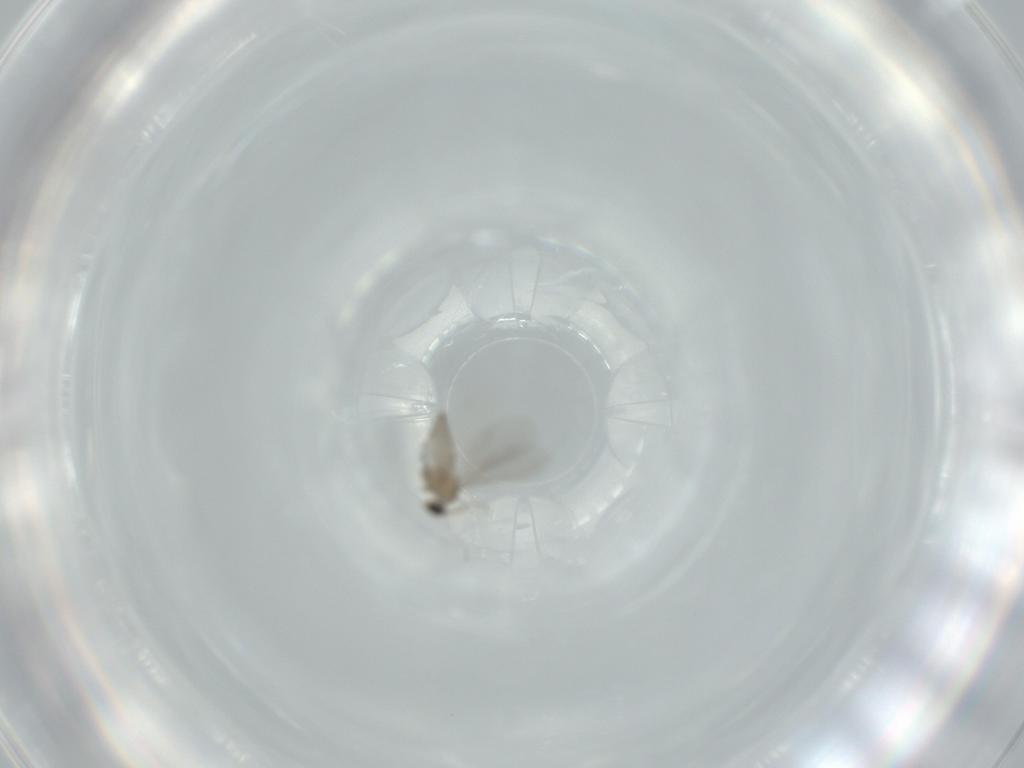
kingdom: Animalia
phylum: Arthropoda
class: Insecta
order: Diptera
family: Cecidomyiidae
